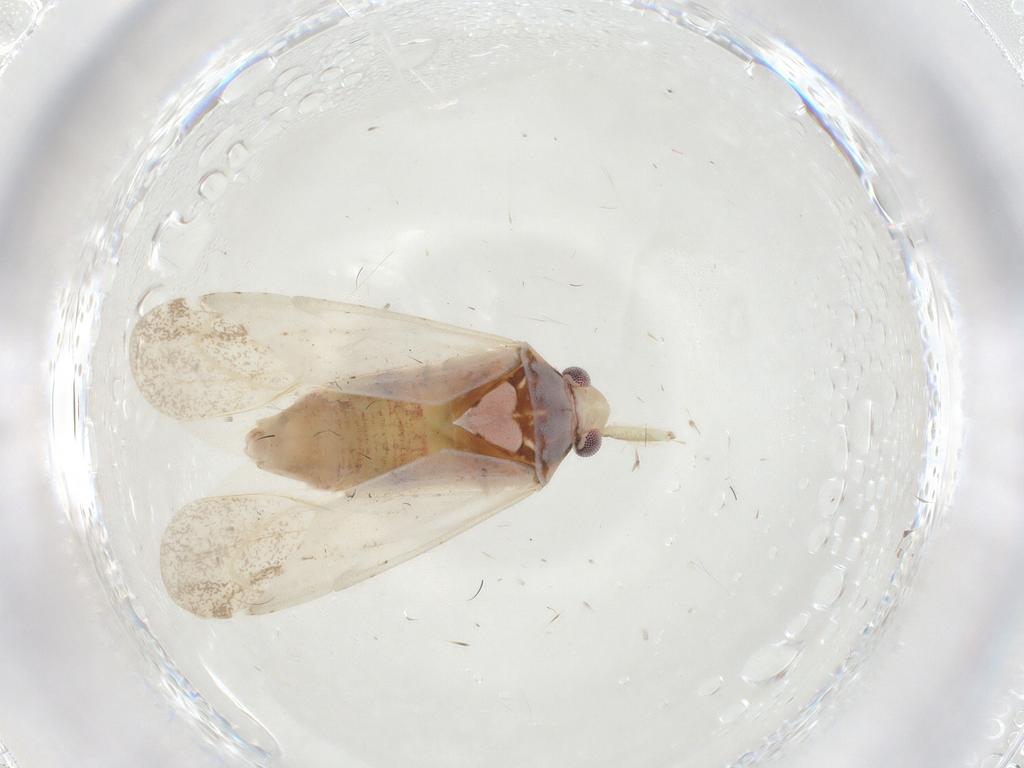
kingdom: Animalia
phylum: Arthropoda
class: Insecta
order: Hemiptera
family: Miridae
